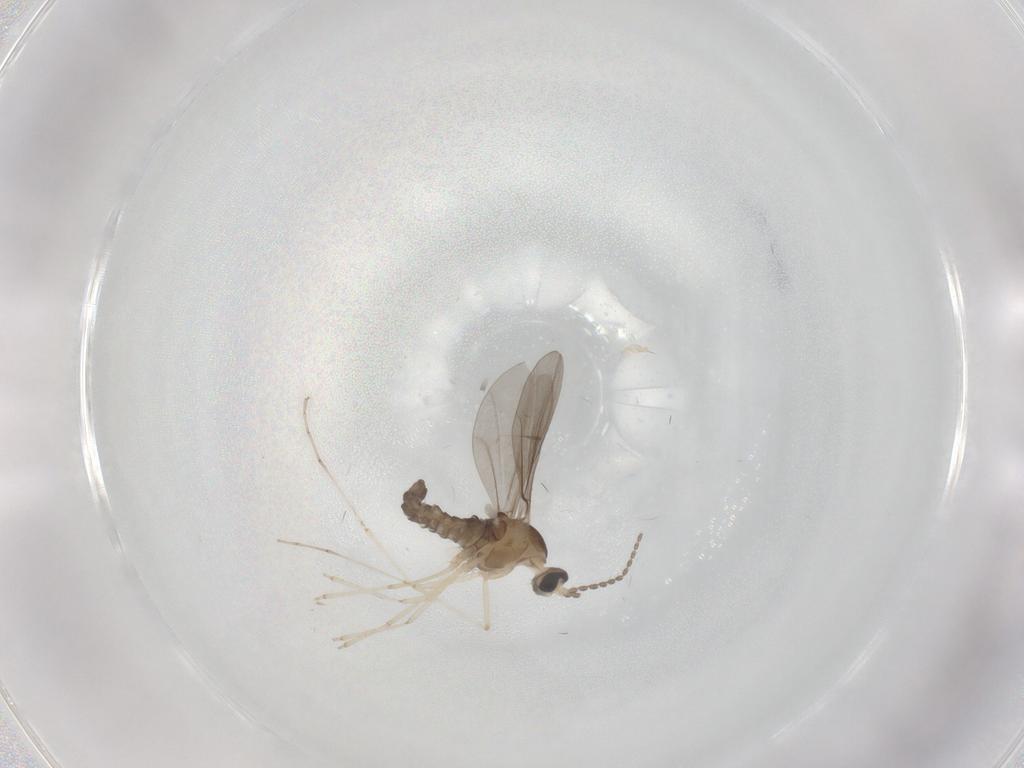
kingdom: Animalia
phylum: Arthropoda
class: Insecta
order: Diptera
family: Cecidomyiidae
